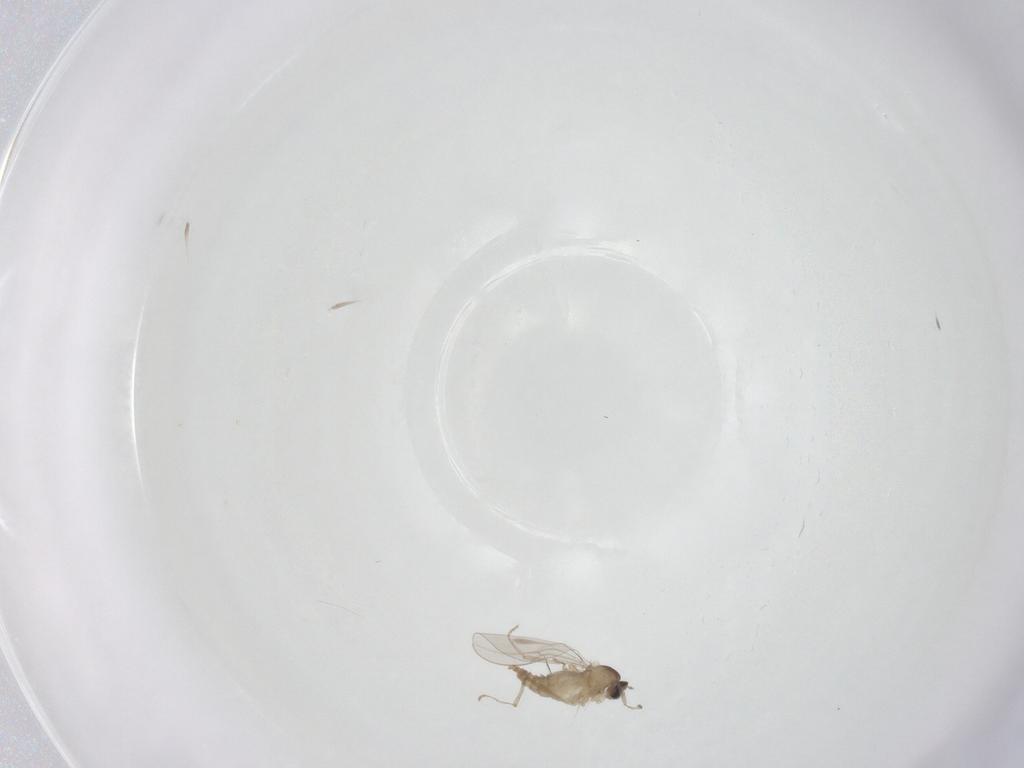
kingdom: Animalia
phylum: Arthropoda
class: Insecta
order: Diptera
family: Cecidomyiidae
